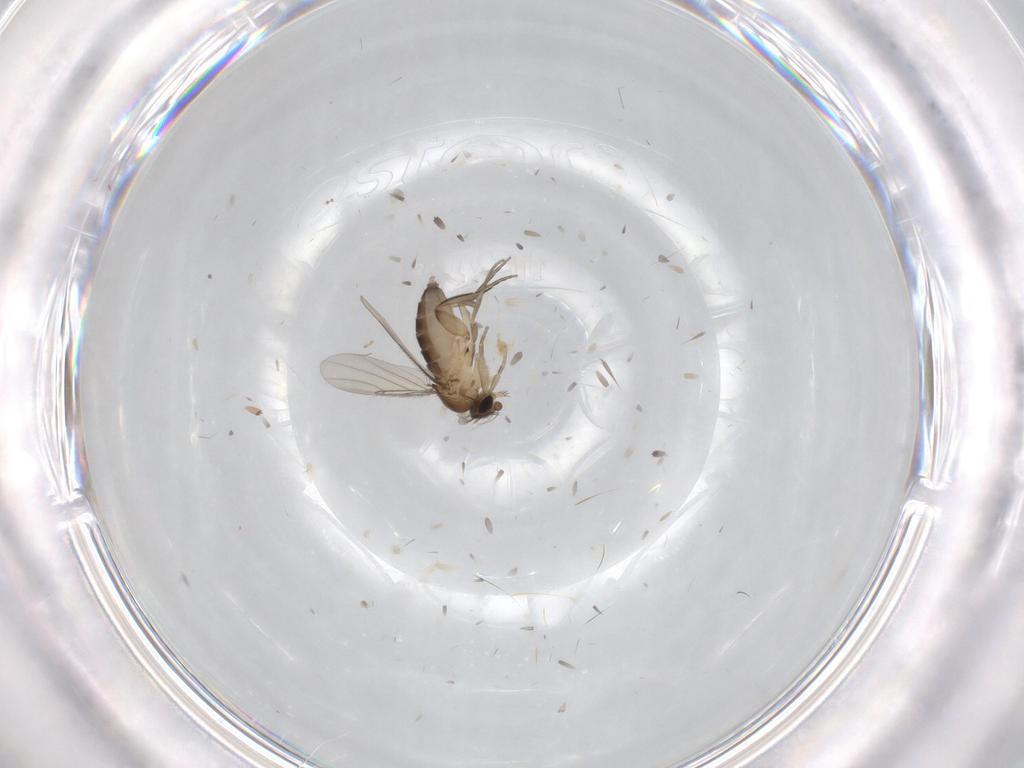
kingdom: Animalia
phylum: Arthropoda
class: Insecta
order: Diptera
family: Phoridae
